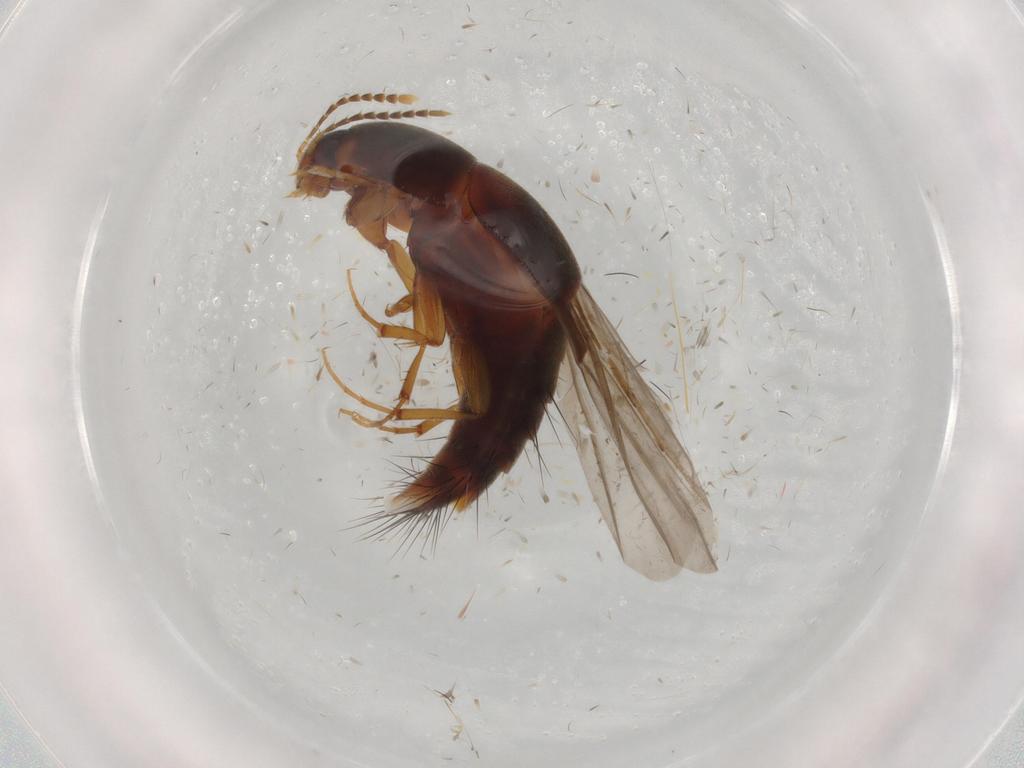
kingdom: Animalia
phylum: Arthropoda
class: Insecta
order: Coleoptera
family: Staphylinidae
